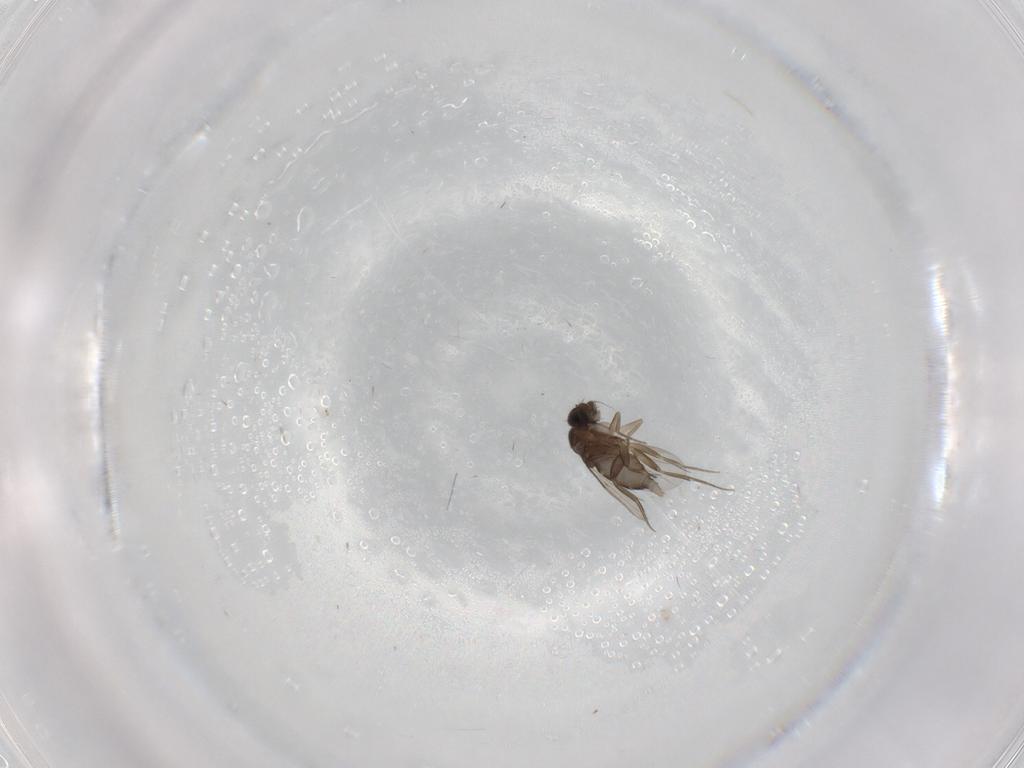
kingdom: Animalia
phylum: Arthropoda
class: Insecta
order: Diptera
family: Phoridae
